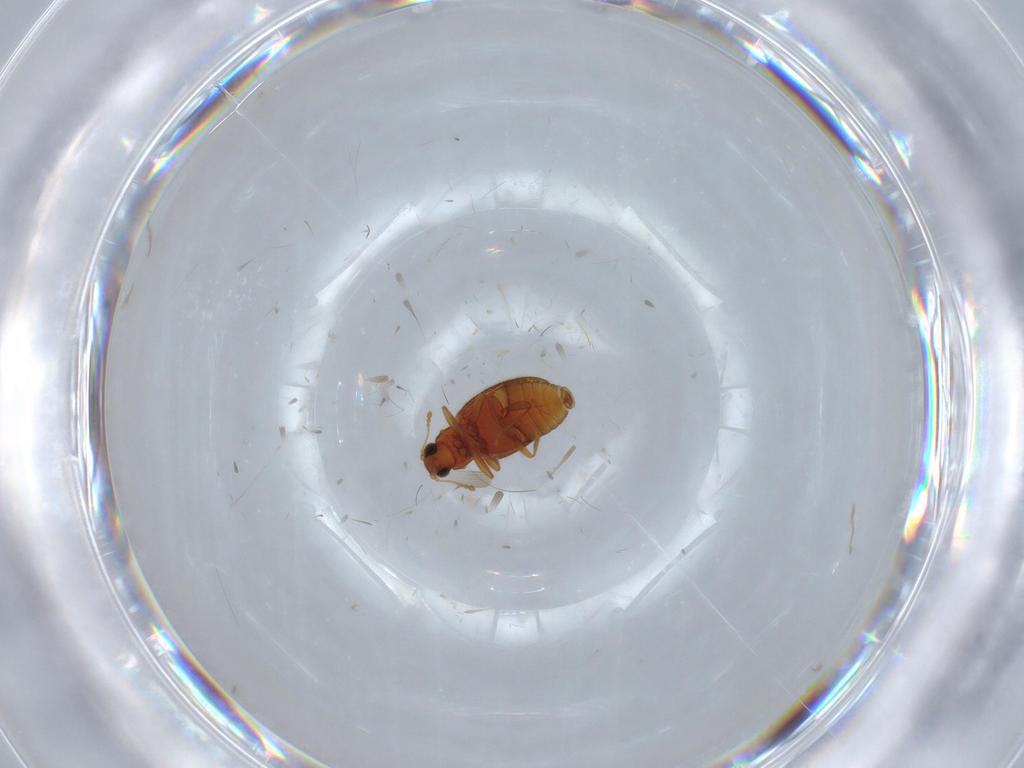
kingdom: Animalia
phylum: Arthropoda
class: Insecta
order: Coleoptera
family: Latridiidae
